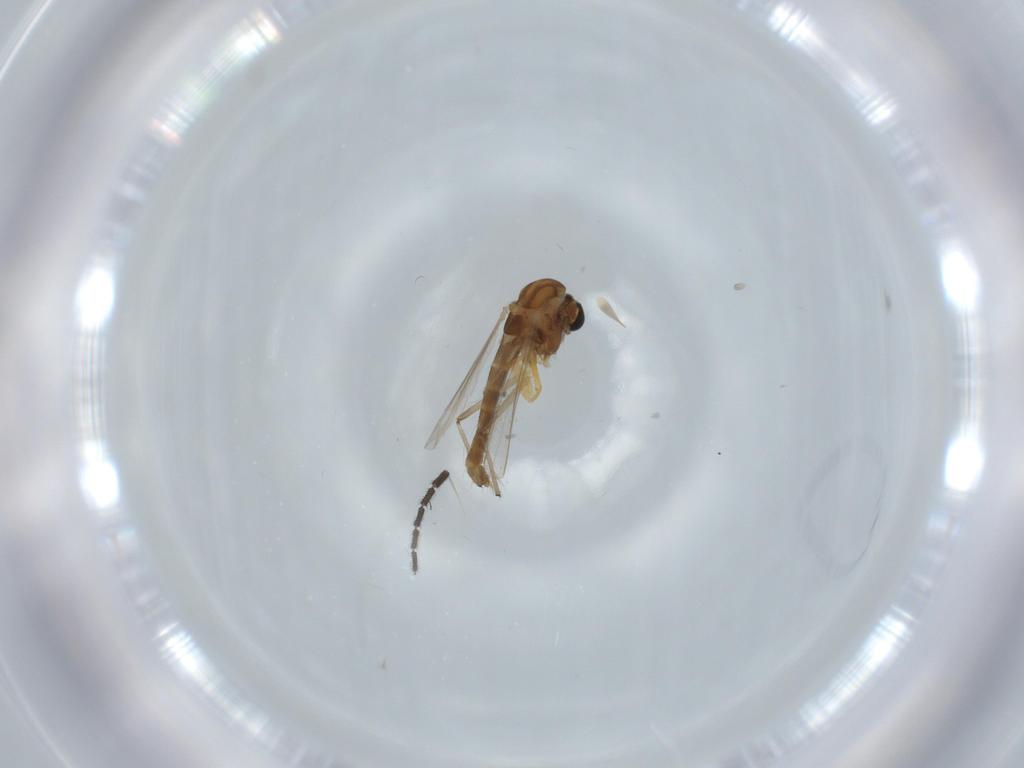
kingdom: Animalia
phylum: Arthropoda
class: Insecta
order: Diptera
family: Chironomidae
